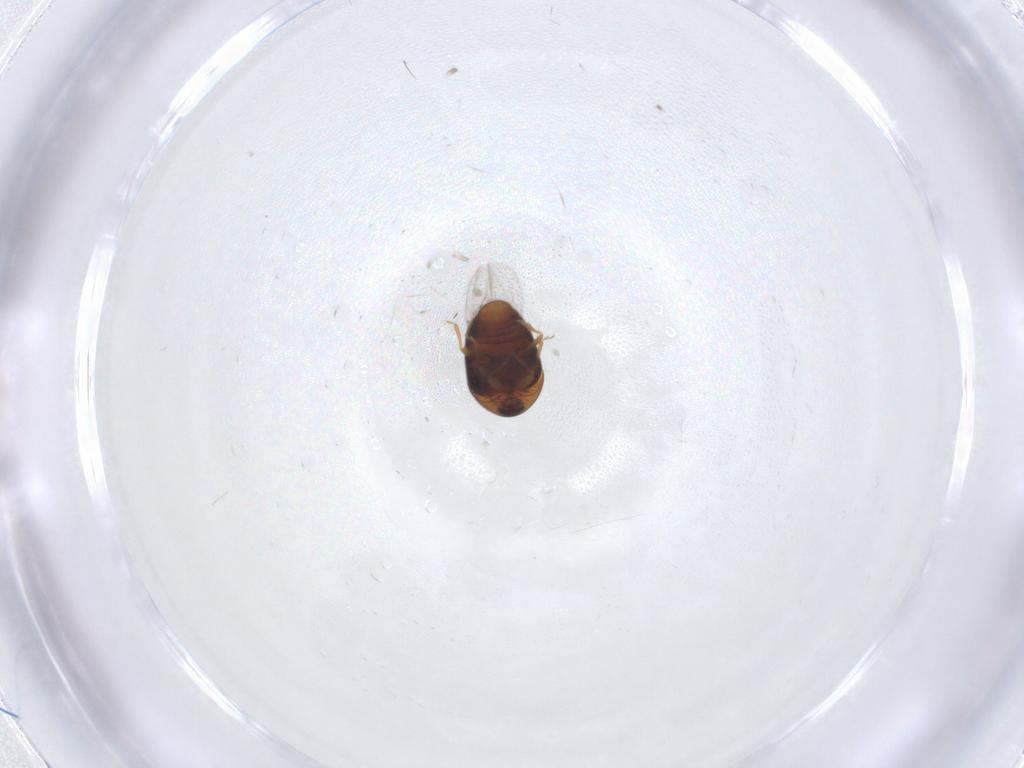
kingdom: Animalia
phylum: Arthropoda
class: Insecta
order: Coleoptera
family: Corylophidae
